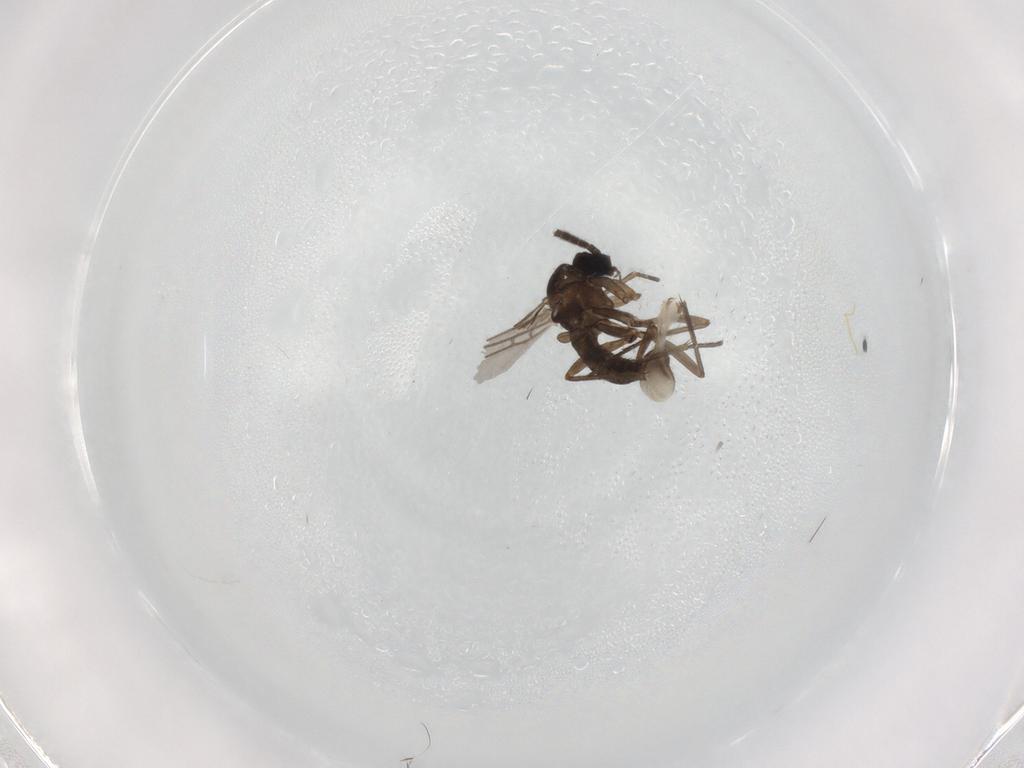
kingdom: Animalia
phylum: Arthropoda
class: Insecta
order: Diptera
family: Keroplatidae
